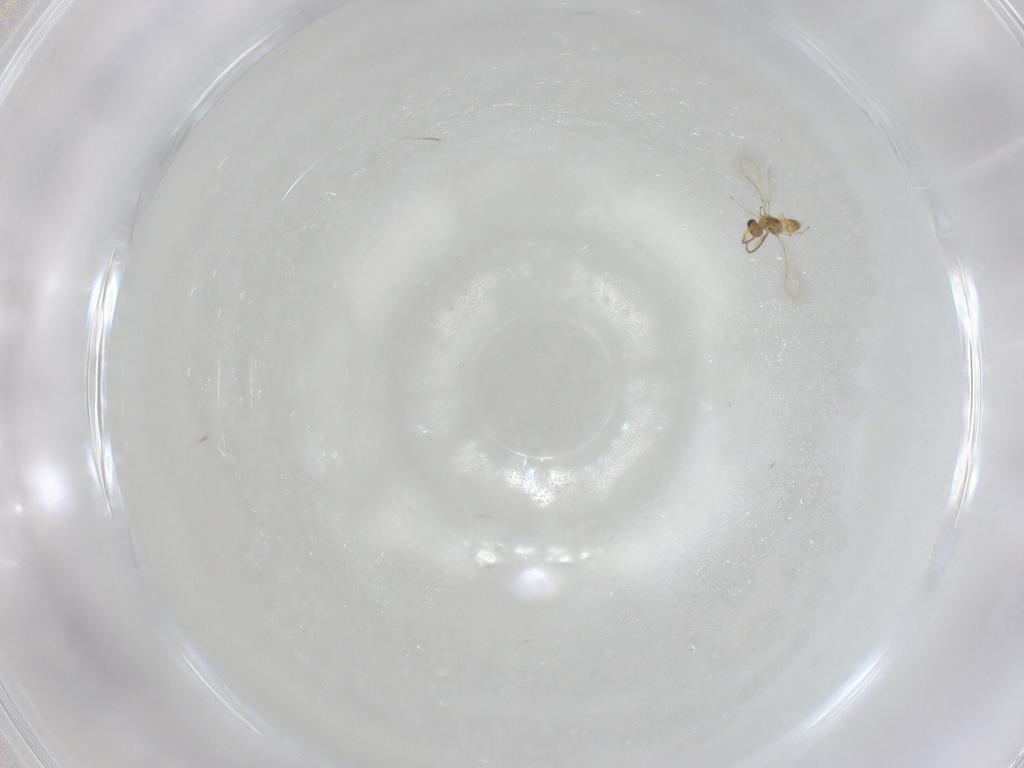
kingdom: Animalia
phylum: Arthropoda
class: Insecta
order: Hymenoptera
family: Mymaridae
